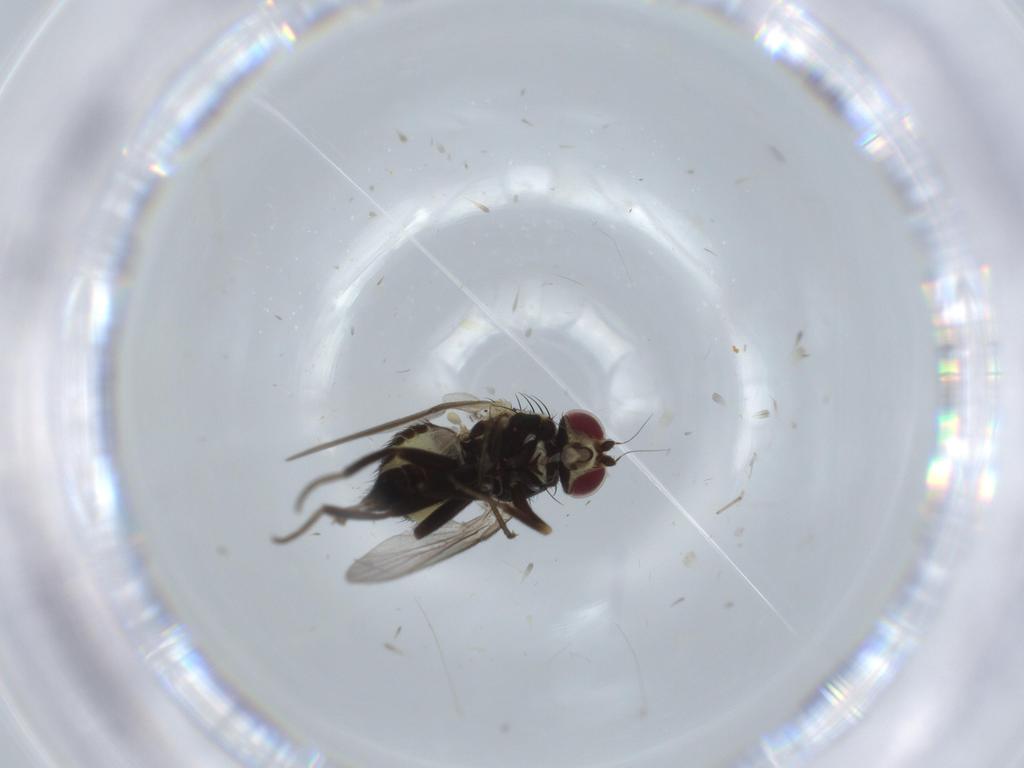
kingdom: Animalia
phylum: Arthropoda
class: Insecta
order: Diptera
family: Agromyzidae
